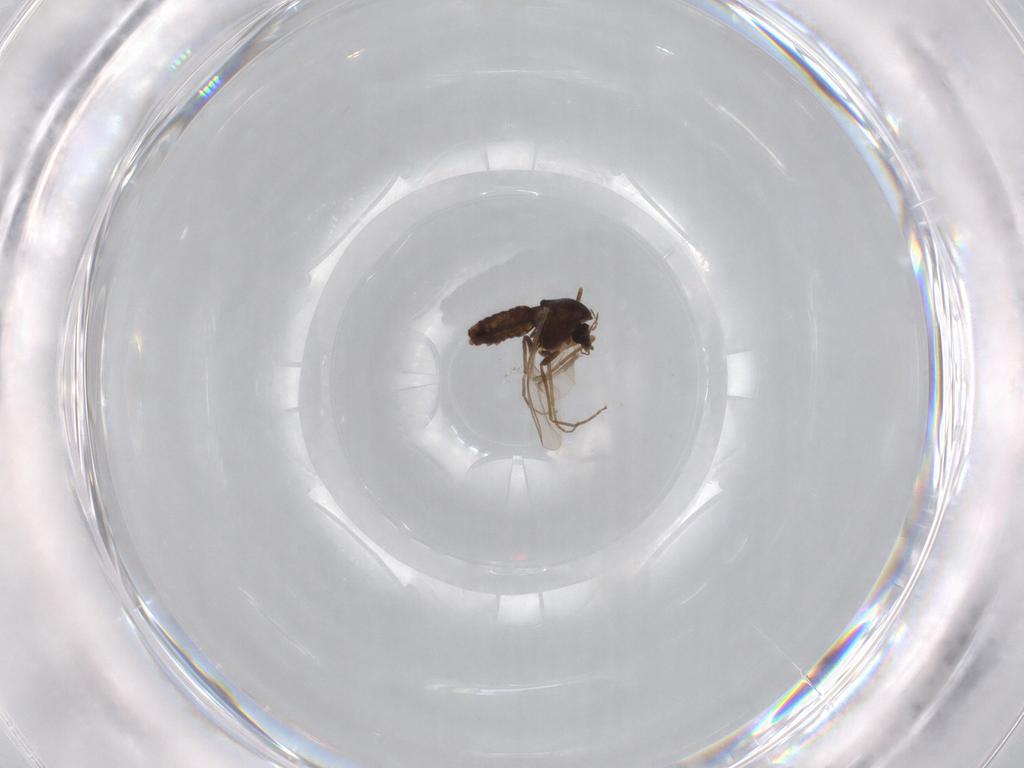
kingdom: Animalia
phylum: Arthropoda
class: Insecta
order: Diptera
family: Chironomidae
